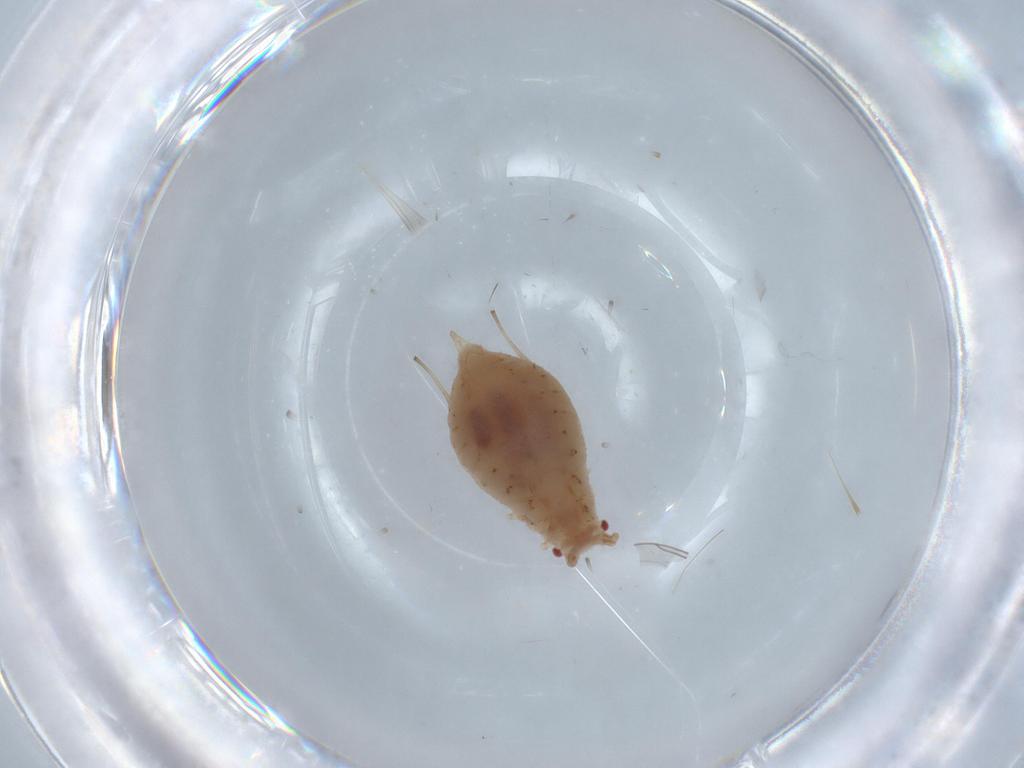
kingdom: Animalia
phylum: Arthropoda
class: Insecta
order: Hemiptera
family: Aphididae
